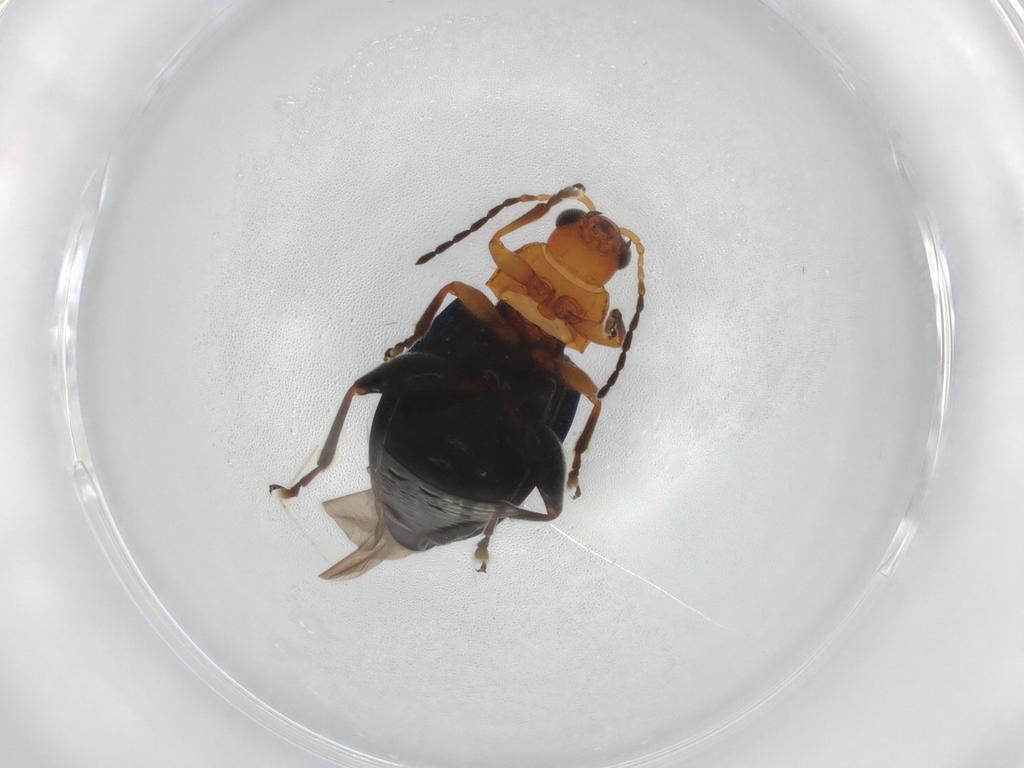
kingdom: Animalia
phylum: Arthropoda
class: Insecta
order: Coleoptera
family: Chrysomelidae
